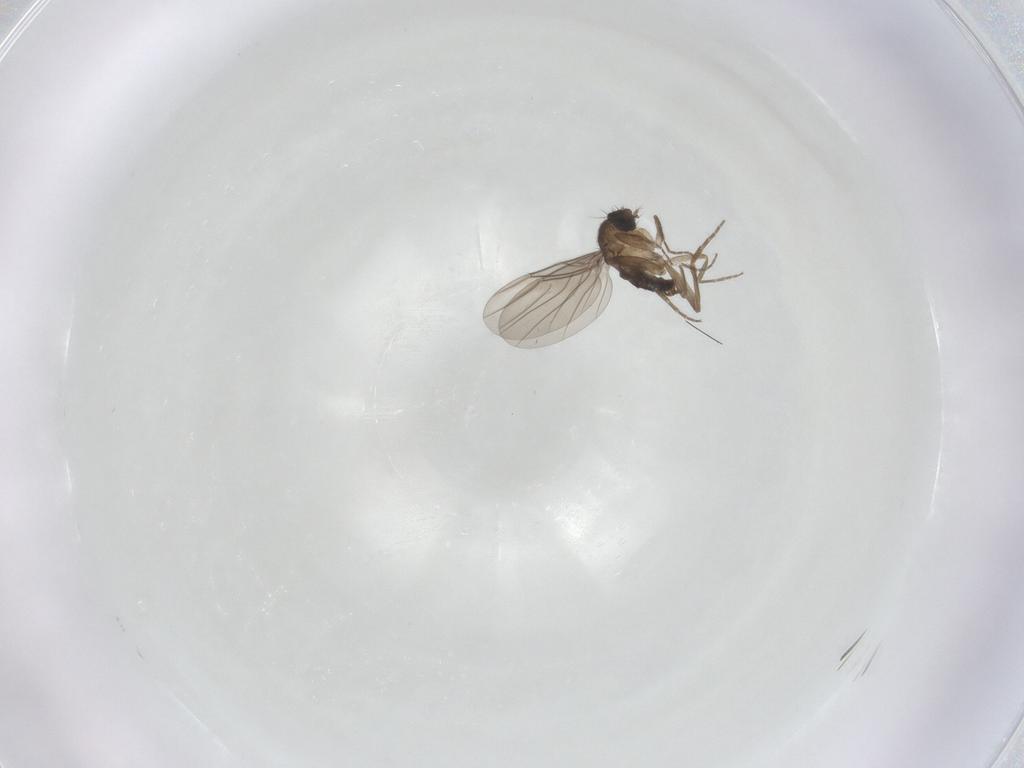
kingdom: Animalia
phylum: Arthropoda
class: Insecta
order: Diptera
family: Phoridae
